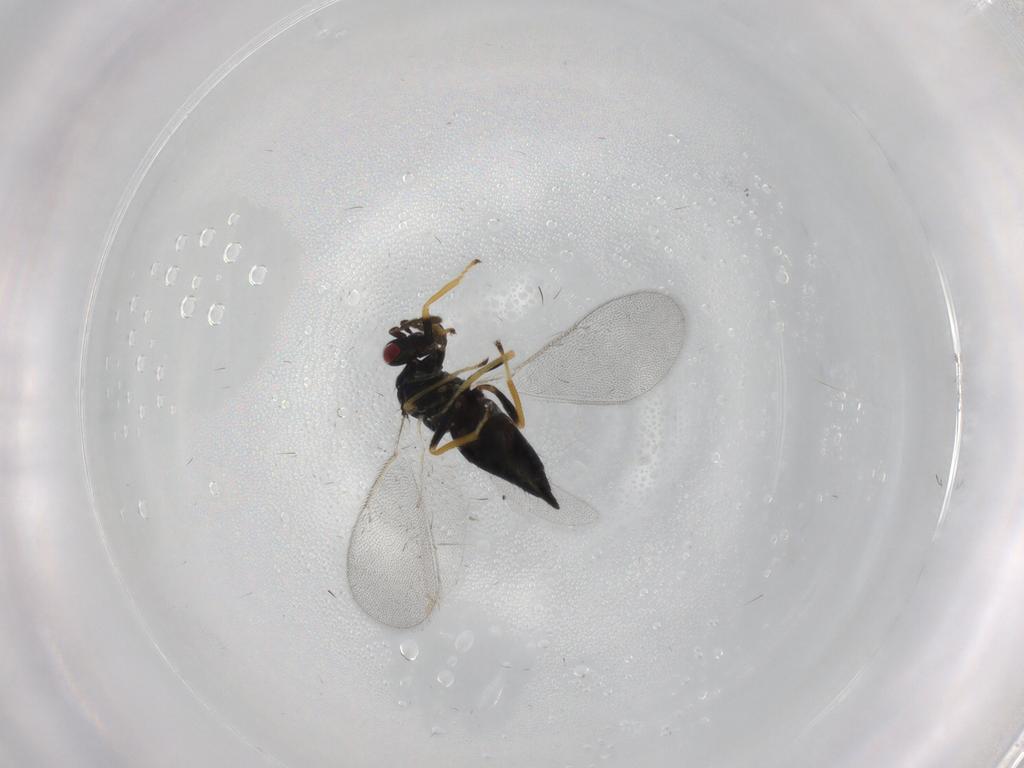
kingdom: Animalia
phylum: Arthropoda
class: Insecta
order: Hymenoptera
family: Eulophidae
